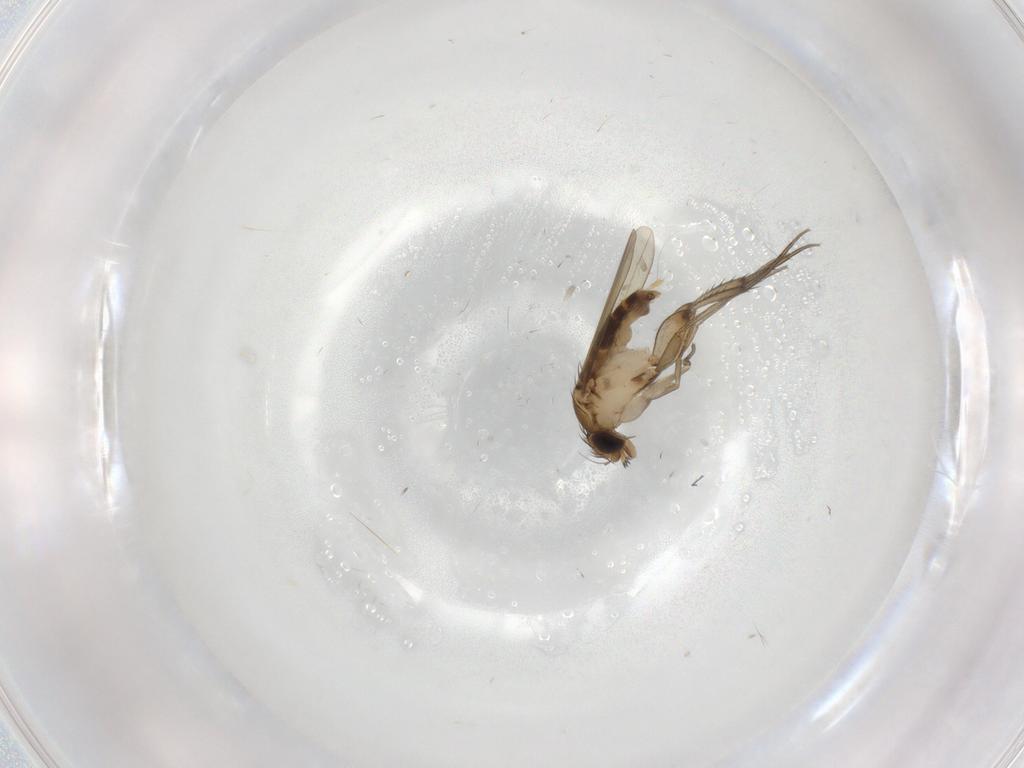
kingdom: Animalia
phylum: Arthropoda
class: Insecta
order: Diptera
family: Phoridae
